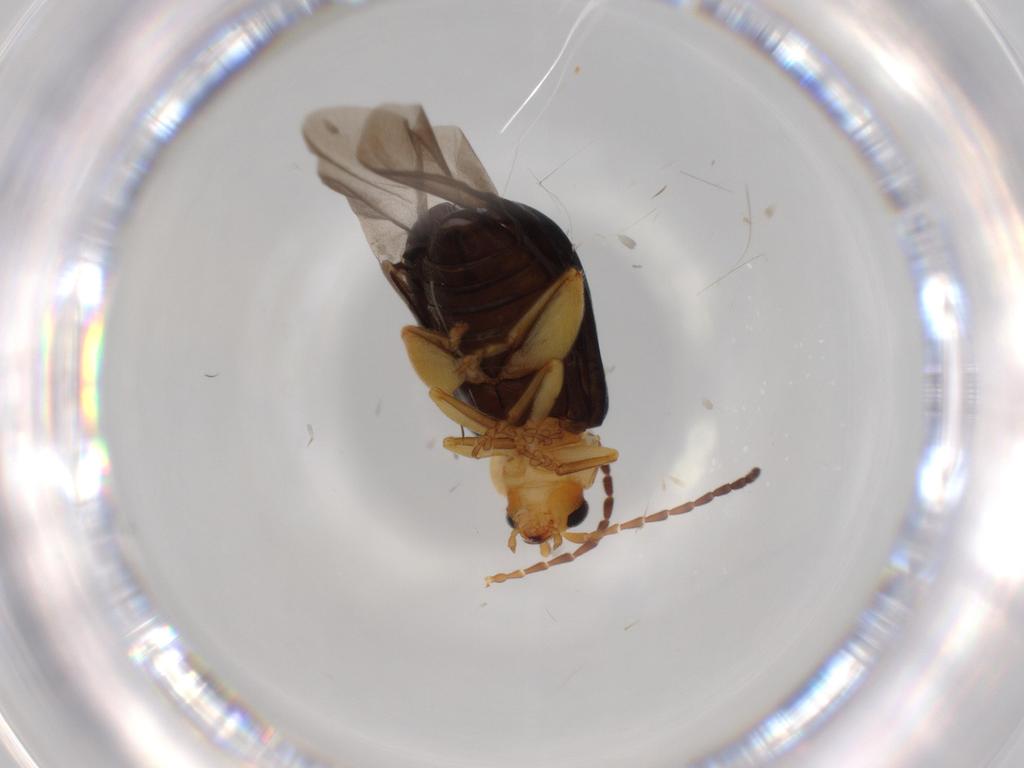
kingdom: Animalia
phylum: Arthropoda
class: Insecta
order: Coleoptera
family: Chrysomelidae
